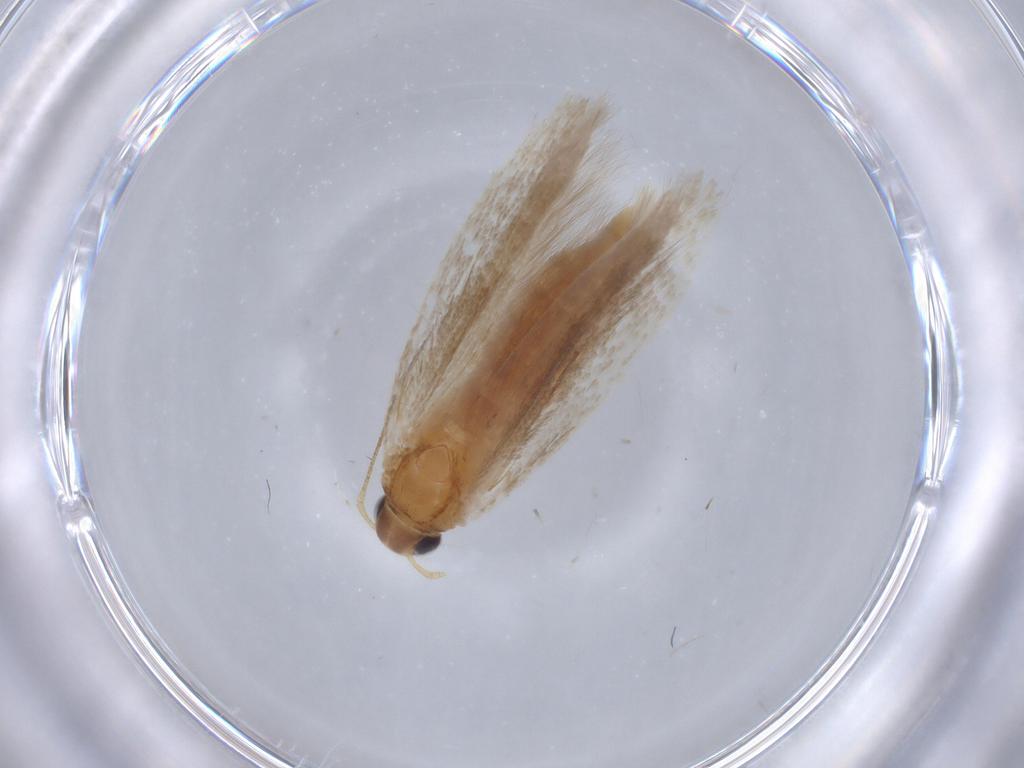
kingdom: Animalia
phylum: Arthropoda
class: Insecta
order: Lepidoptera
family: Gelechiidae
